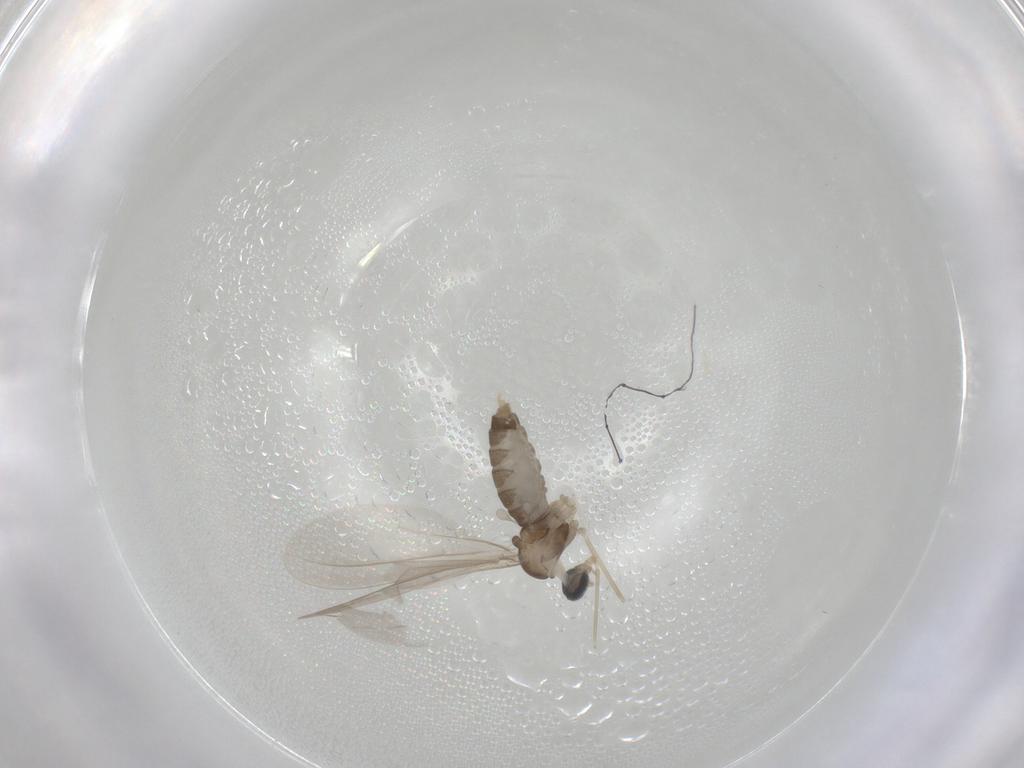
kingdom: Animalia
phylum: Arthropoda
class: Insecta
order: Diptera
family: Cecidomyiidae
